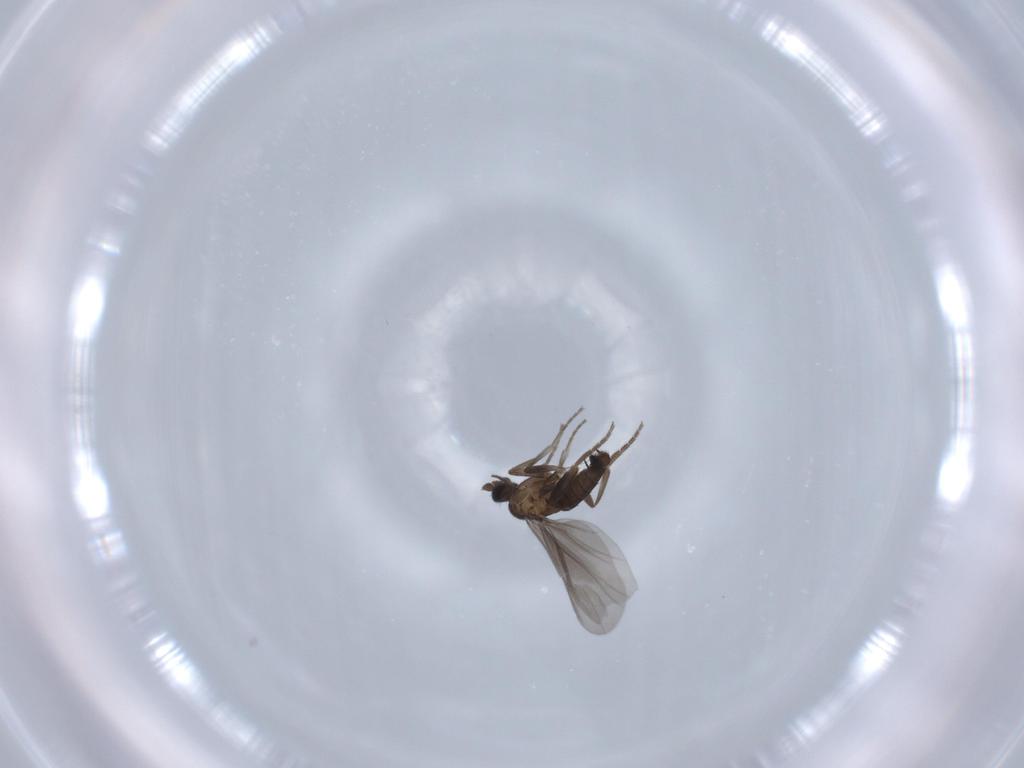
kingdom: Animalia
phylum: Arthropoda
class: Insecta
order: Diptera
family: Phoridae
